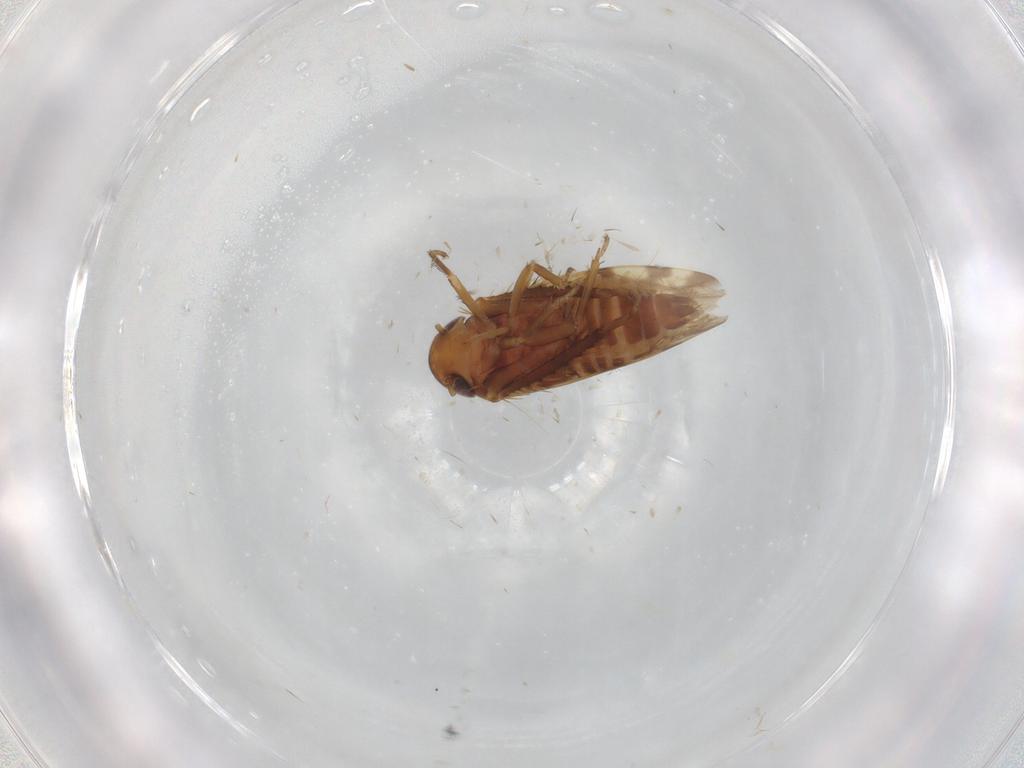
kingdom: Animalia
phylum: Arthropoda
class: Insecta
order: Hemiptera
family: Cicadellidae
